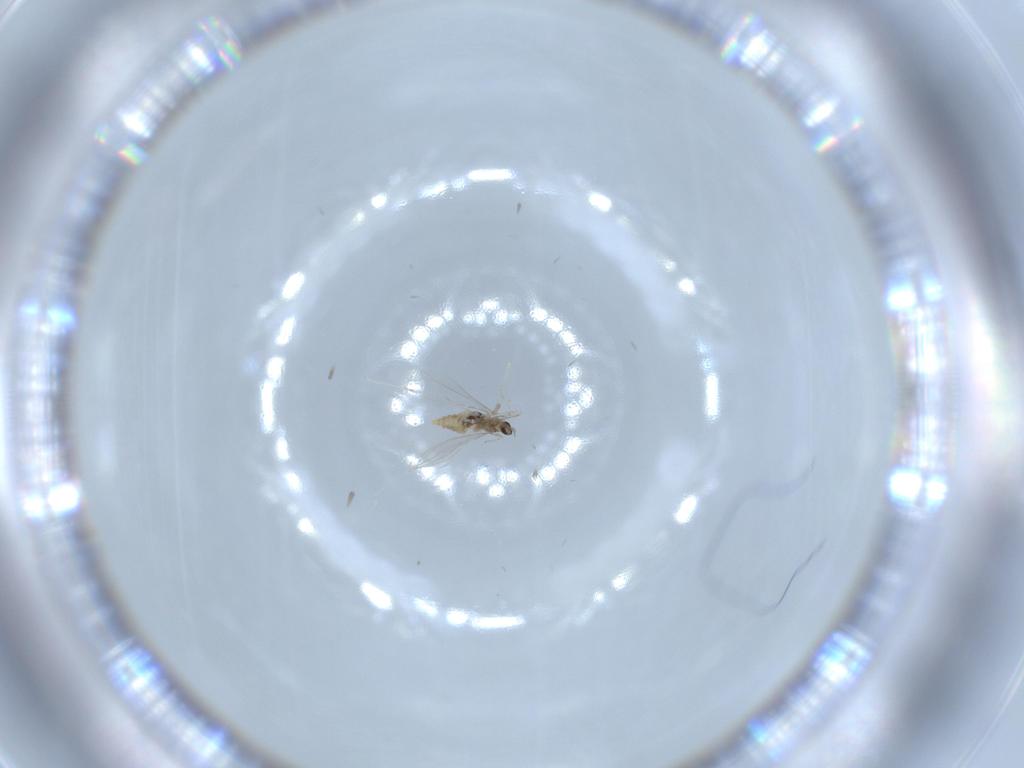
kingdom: Animalia
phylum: Arthropoda
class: Insecta
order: Diptera
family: Cecidomyiidae
